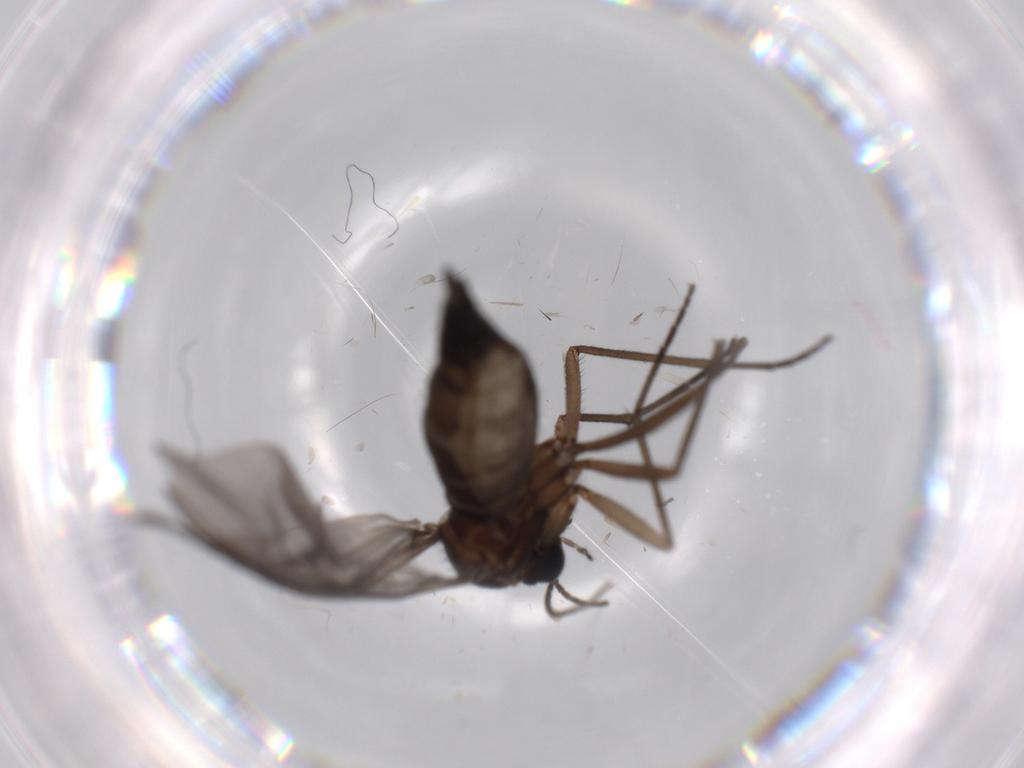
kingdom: Animalia
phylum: Arthropoda
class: Insecta
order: Diptera
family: Sciaridae
